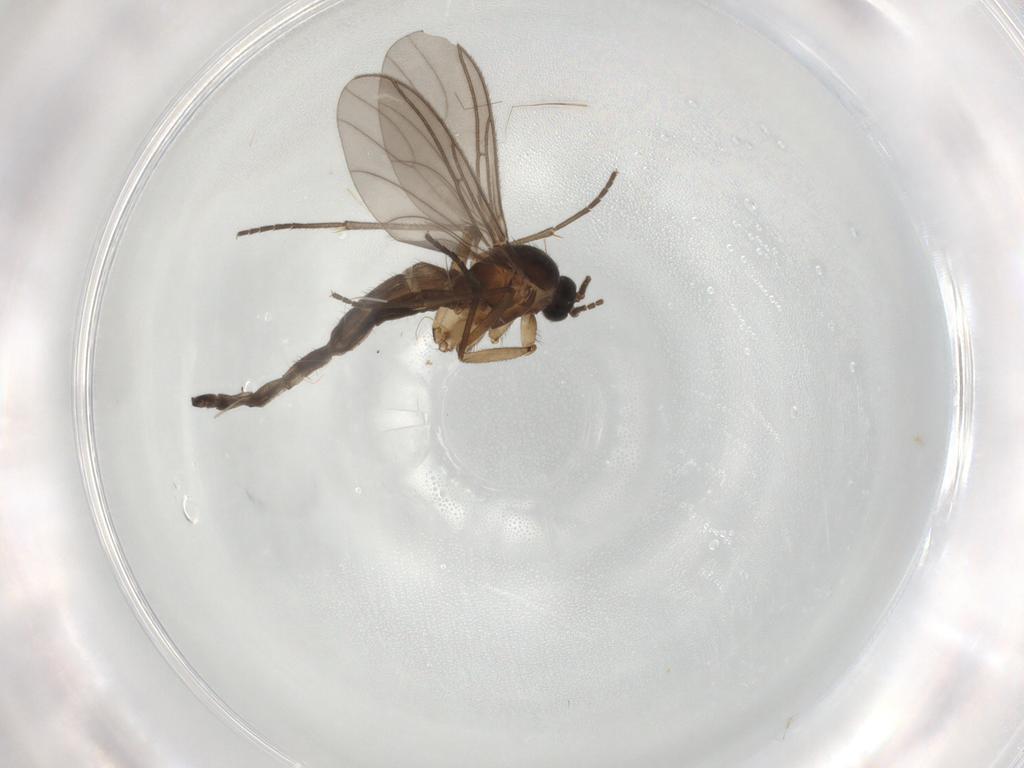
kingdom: Animalia
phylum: Arthropoda
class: Insecta
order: Diptera
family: Sciaridae
